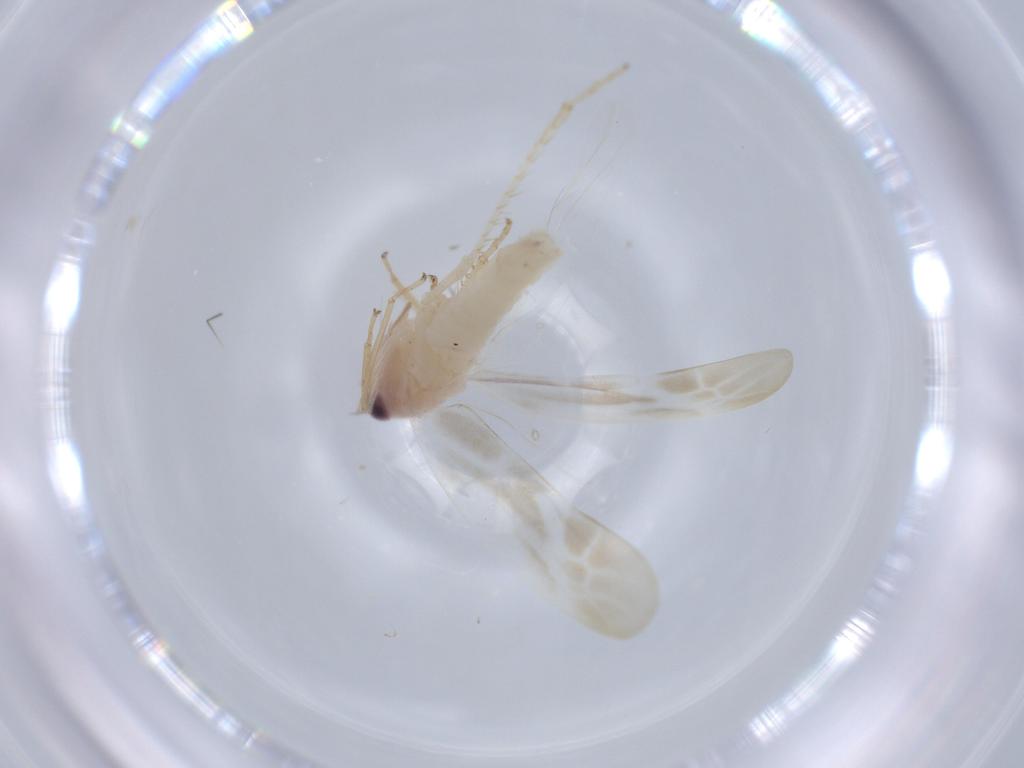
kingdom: Animalia
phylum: Arthropoda
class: Insecta
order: Hemiptera
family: Cicadellidae
